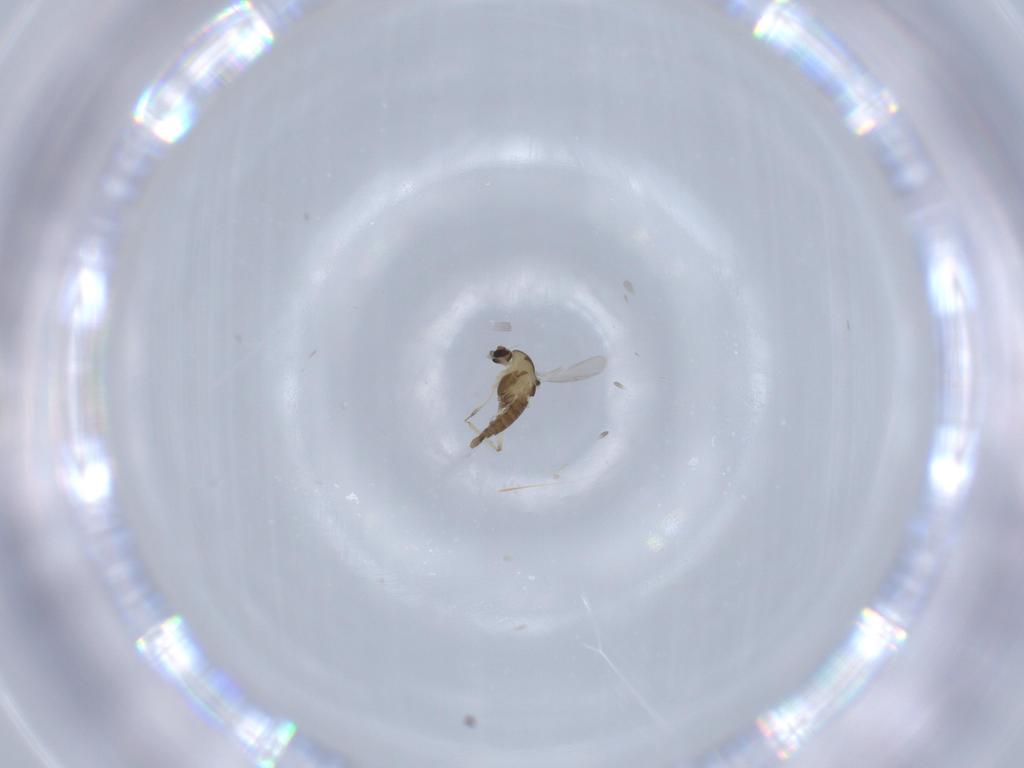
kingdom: Animalia
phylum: Arthropoda
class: Insecta
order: Diptera
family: Chironomidae
